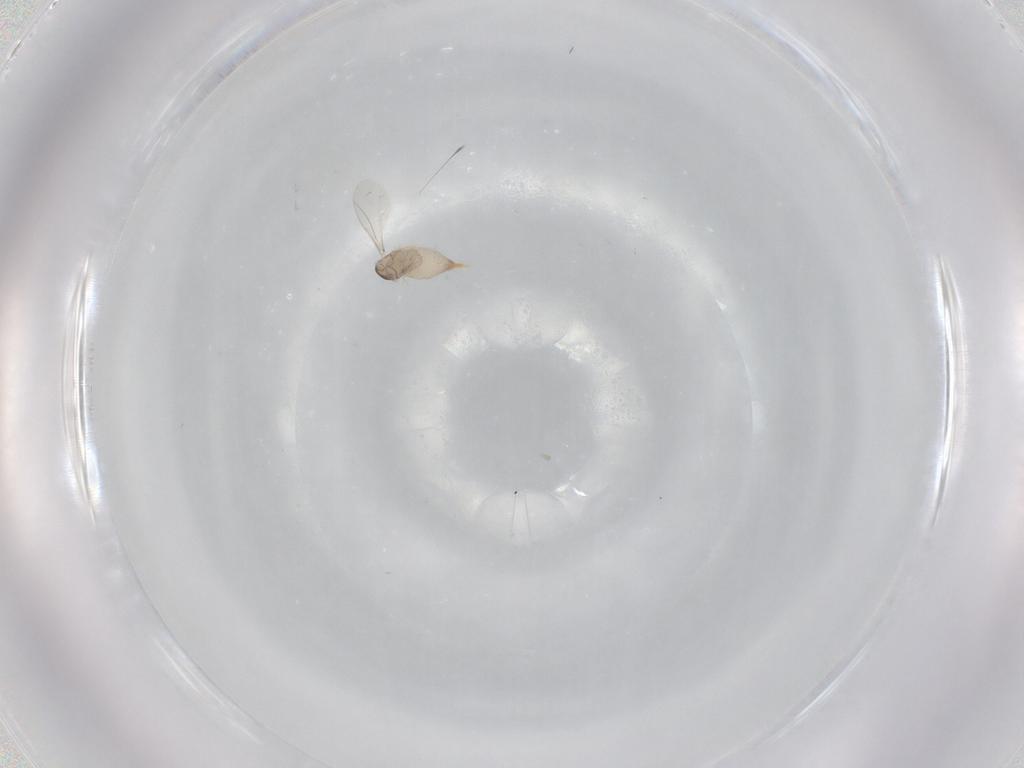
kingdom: Animalia
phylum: Arthropoda
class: Insecta
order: Diptera
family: Cecidomyiidae
